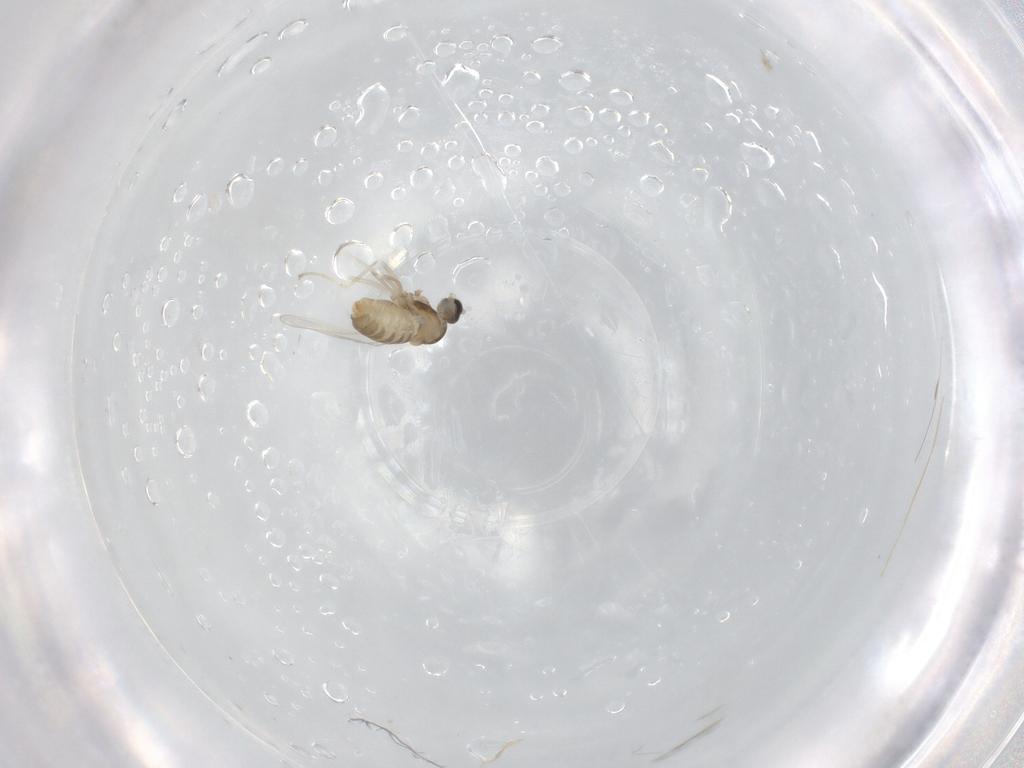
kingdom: Animalia
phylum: Arthropoda
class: Insecta
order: Diptera
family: Cecidomyiidae
